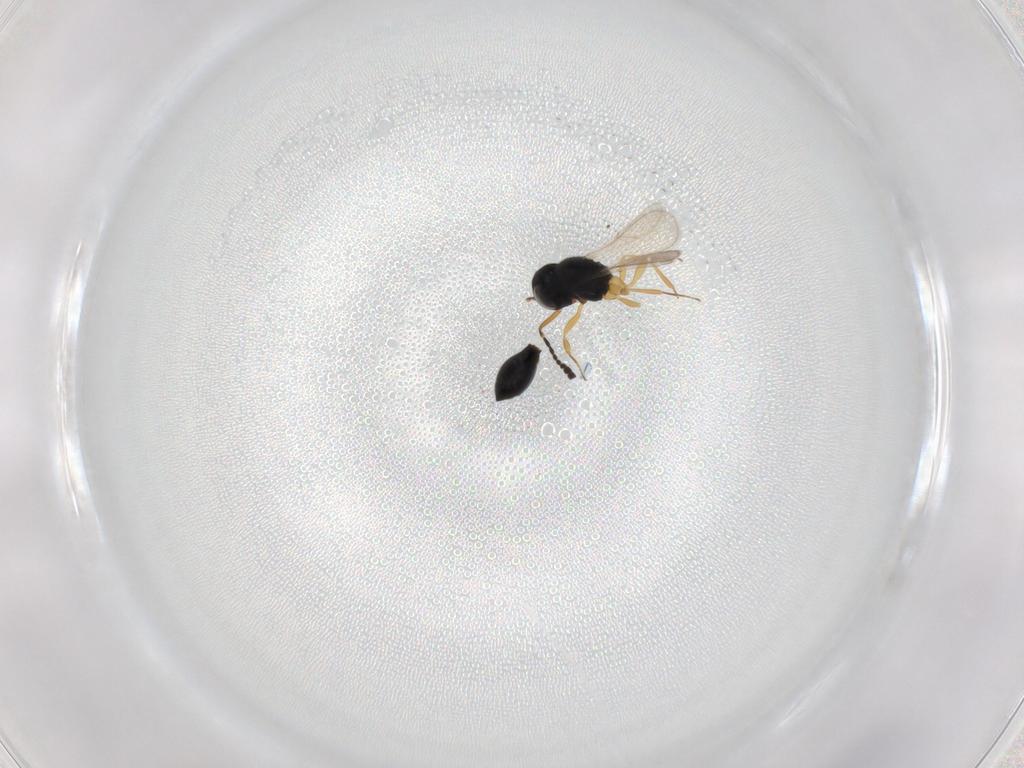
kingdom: Animalia
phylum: Arthropoda
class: Insecta
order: Hymenoptera
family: Scelionidae
